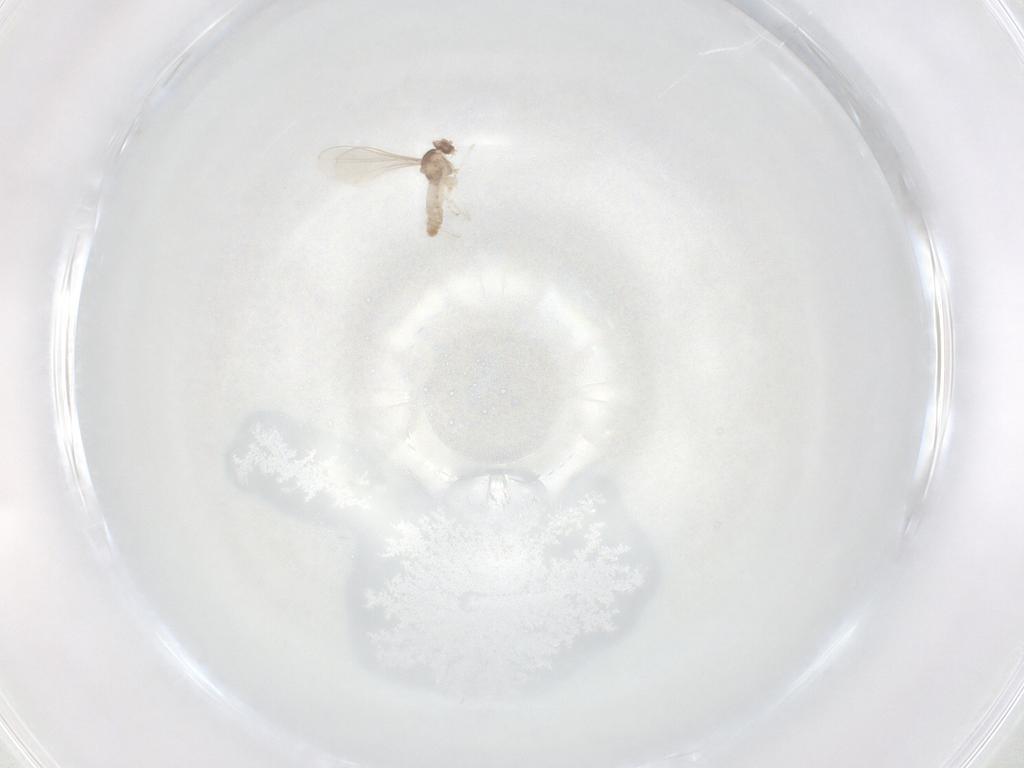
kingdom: Animalia
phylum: Arthropoda
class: Insecta
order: Diptera
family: Cecidomyiidae
